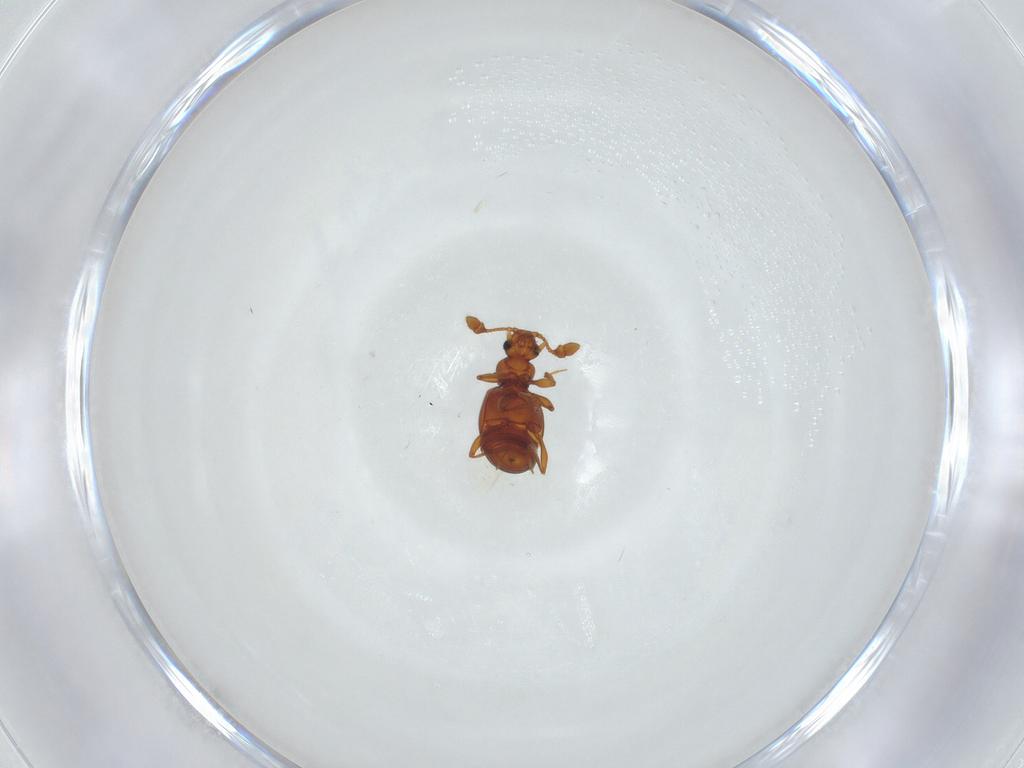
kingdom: Animalia
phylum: Arthropoda
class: Insecta
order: Coleoptera
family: Staphylinidae
